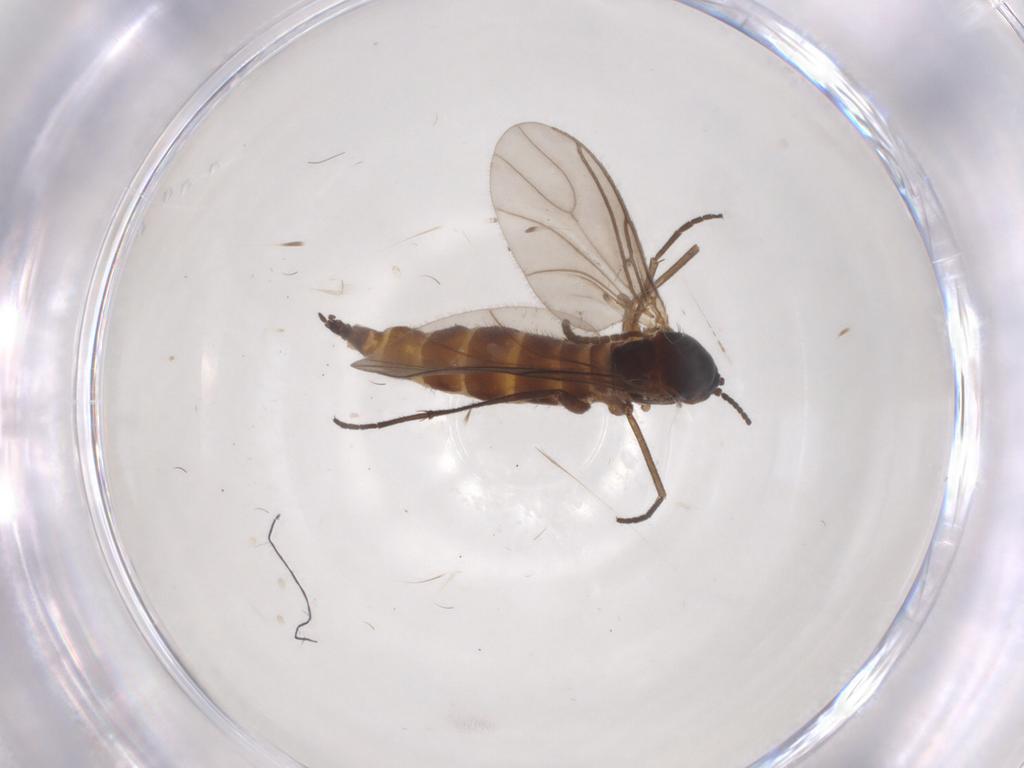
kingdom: Animalia
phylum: Arthropoda
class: Insecta
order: Diptera
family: Sciaridae
